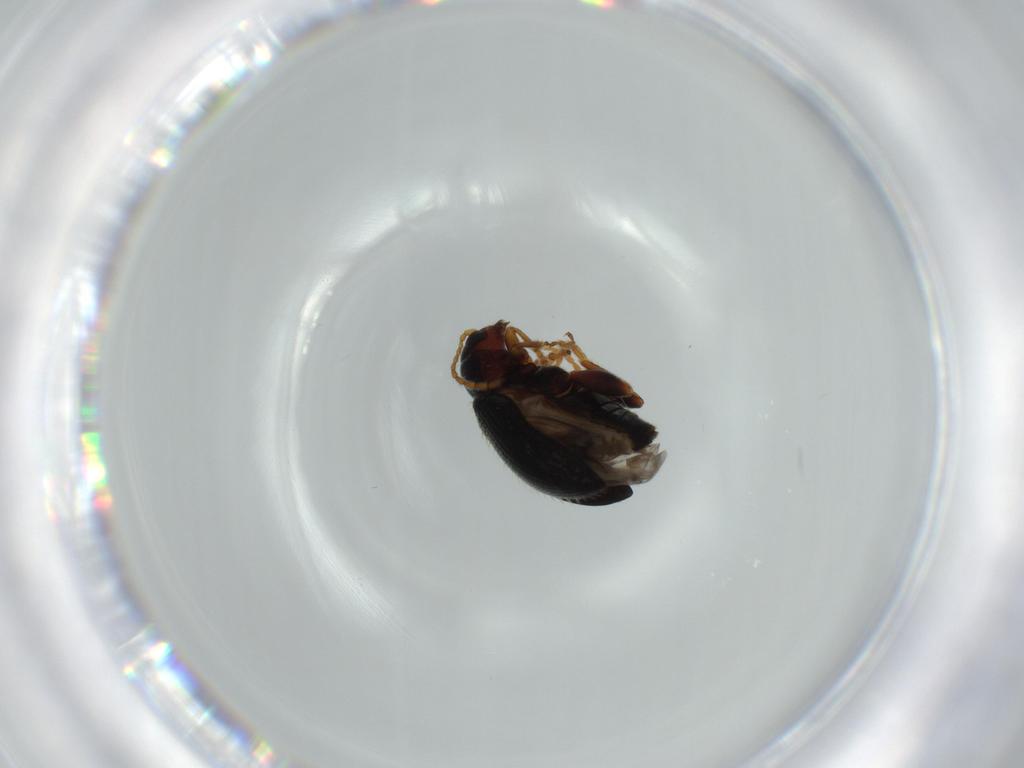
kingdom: Animalia
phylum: Arthropoda
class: Insecta
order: Coleoptera
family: Chrysomelidae
